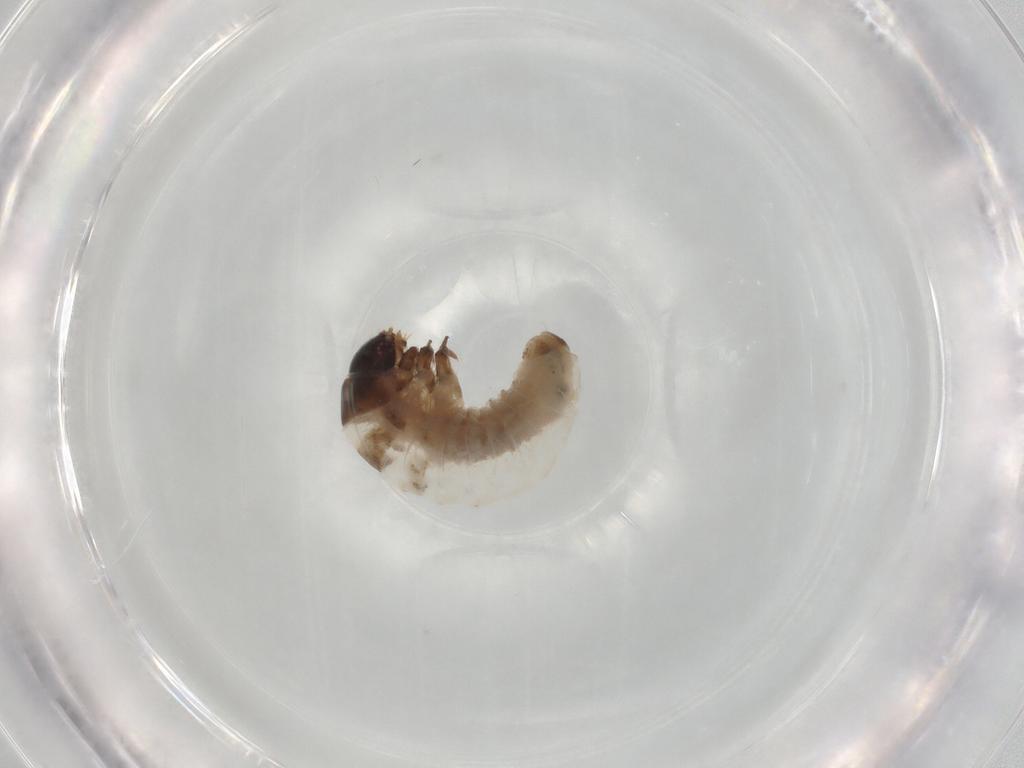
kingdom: Animalia
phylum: Arthropoda
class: Insecta
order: Lepidoptera
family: Psychidae
